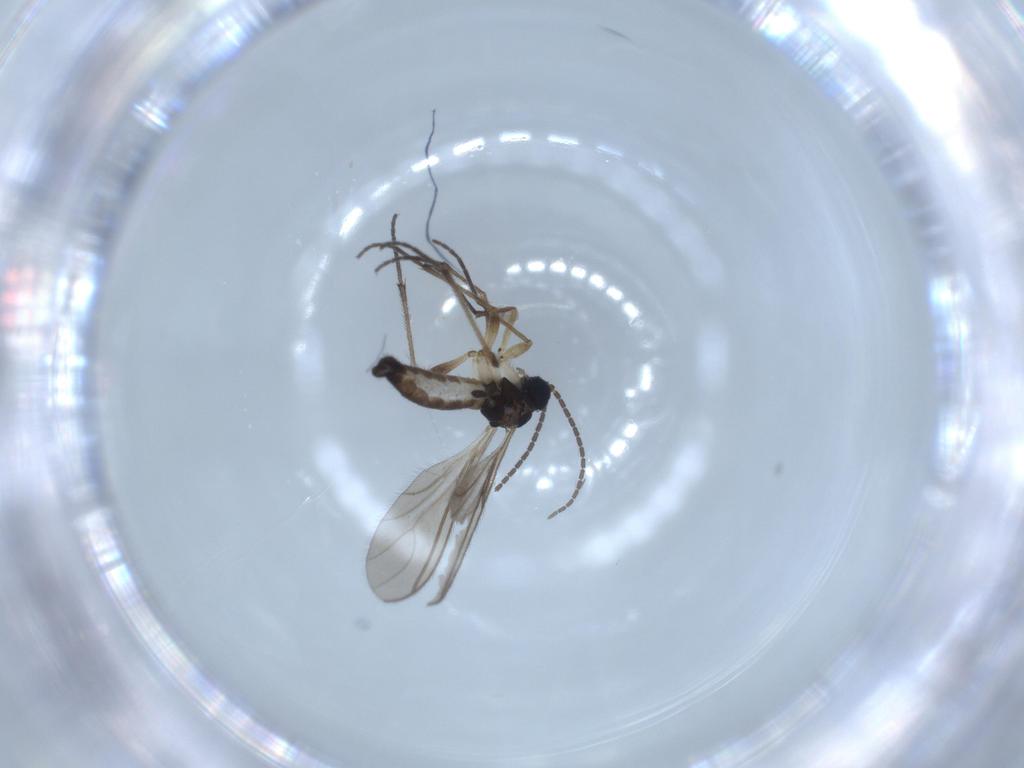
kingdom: Animalia
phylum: Arthropoda
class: Insecta
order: Diptera
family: Sciaridae
